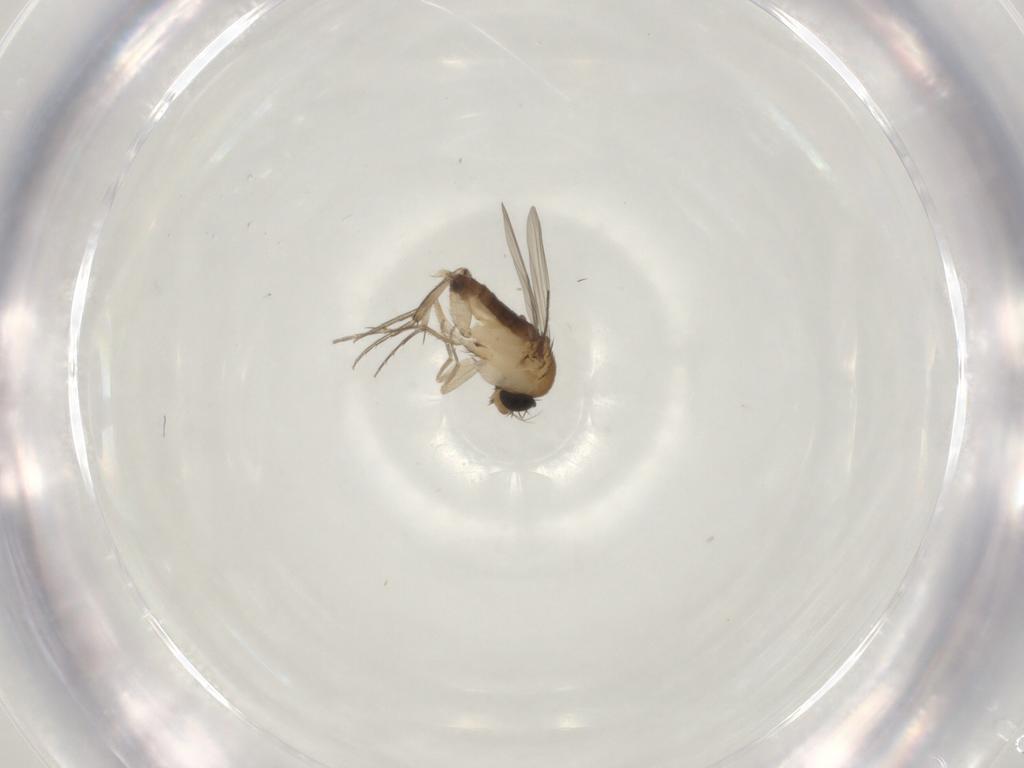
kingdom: Animalia
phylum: Arthropoda
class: Insecta
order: Diptera
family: Phoridae
